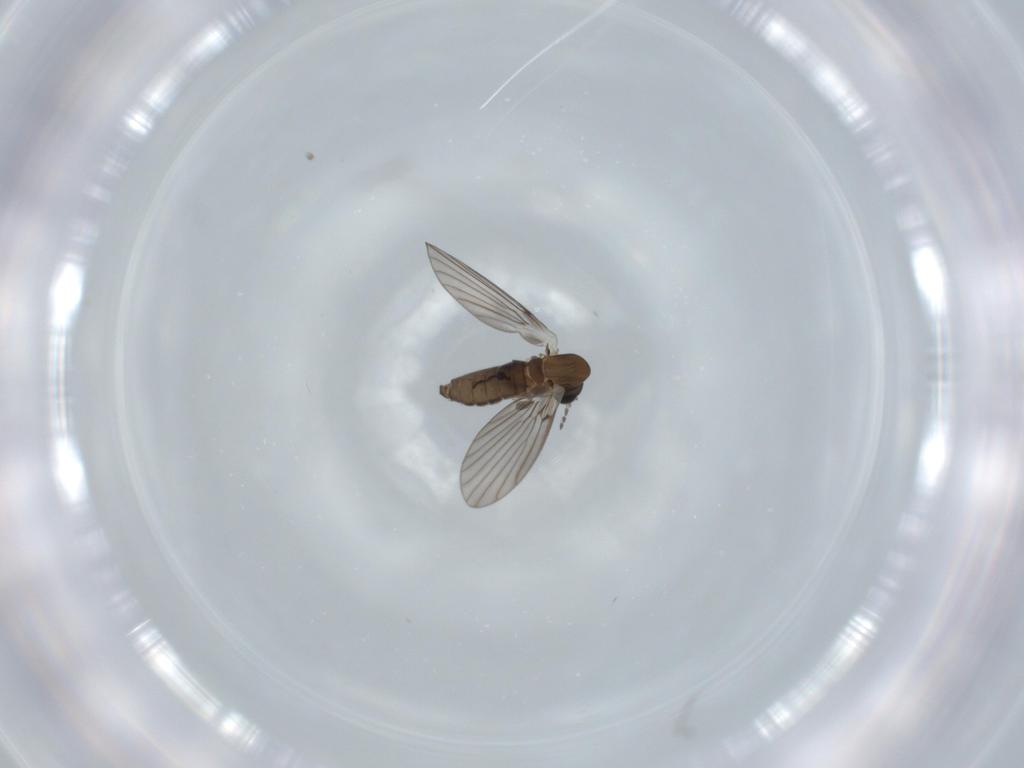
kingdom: Animalia
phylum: Arthropoda
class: Insecta
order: Diptera
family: Psychodidae
